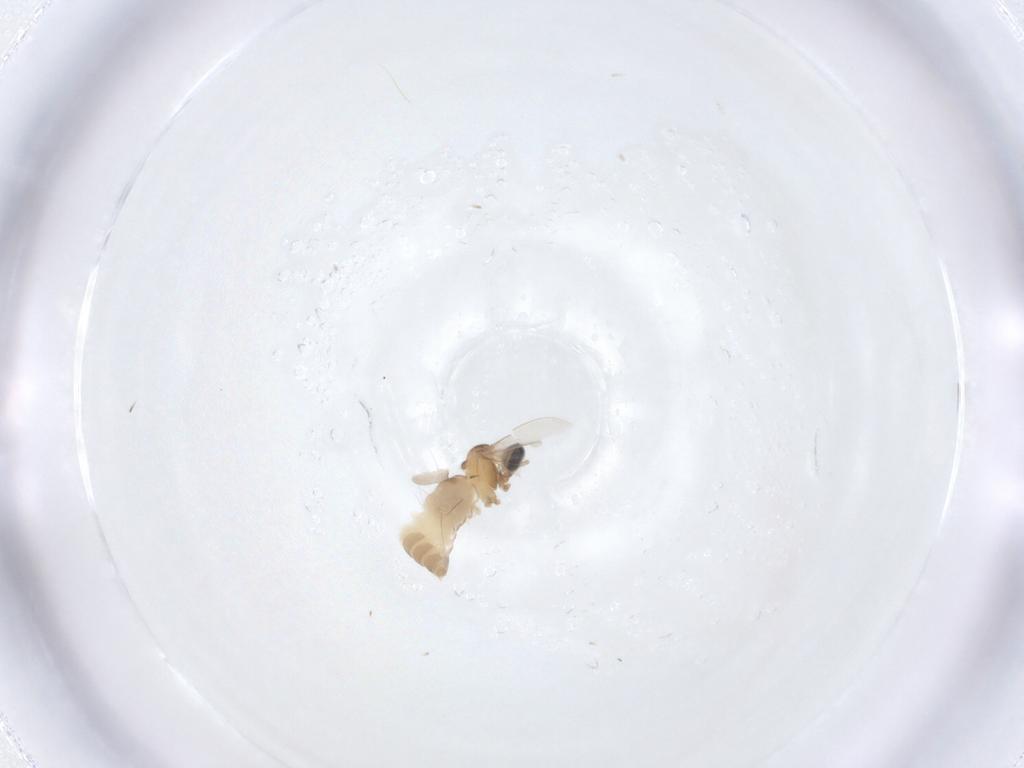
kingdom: Animalia
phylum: Arthropoda
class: Insecta
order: Diptera
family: Cecidomyiidae
